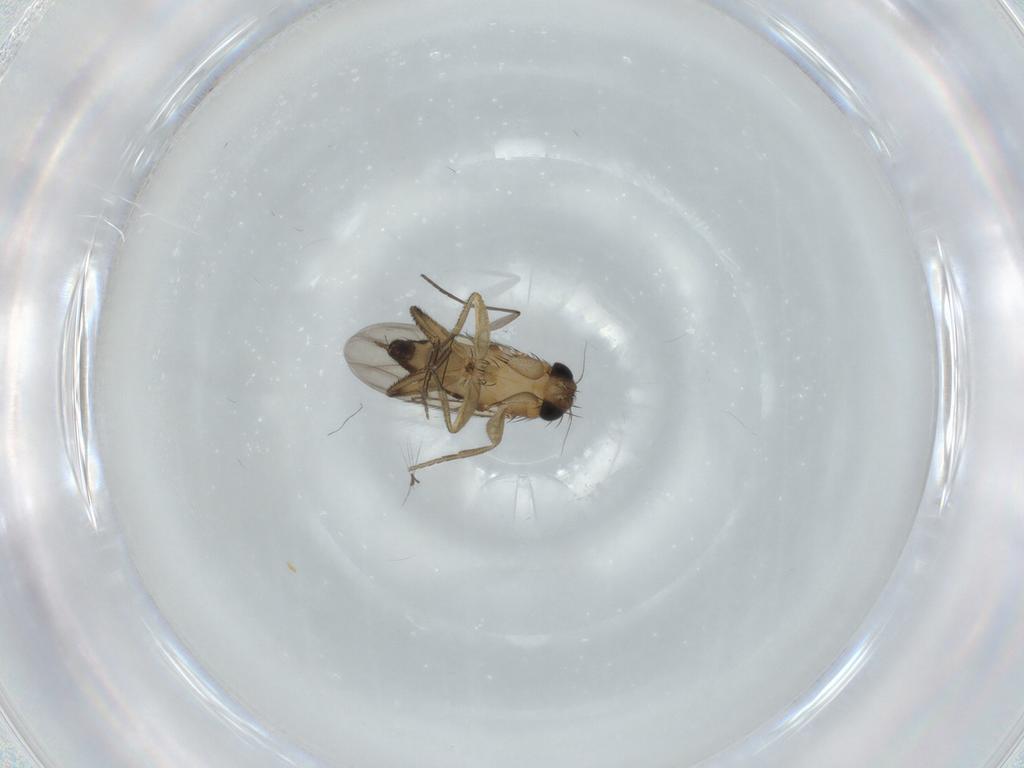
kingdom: Animalia
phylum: Arthropoda
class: Insecta
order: Diptera
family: Phoridae
